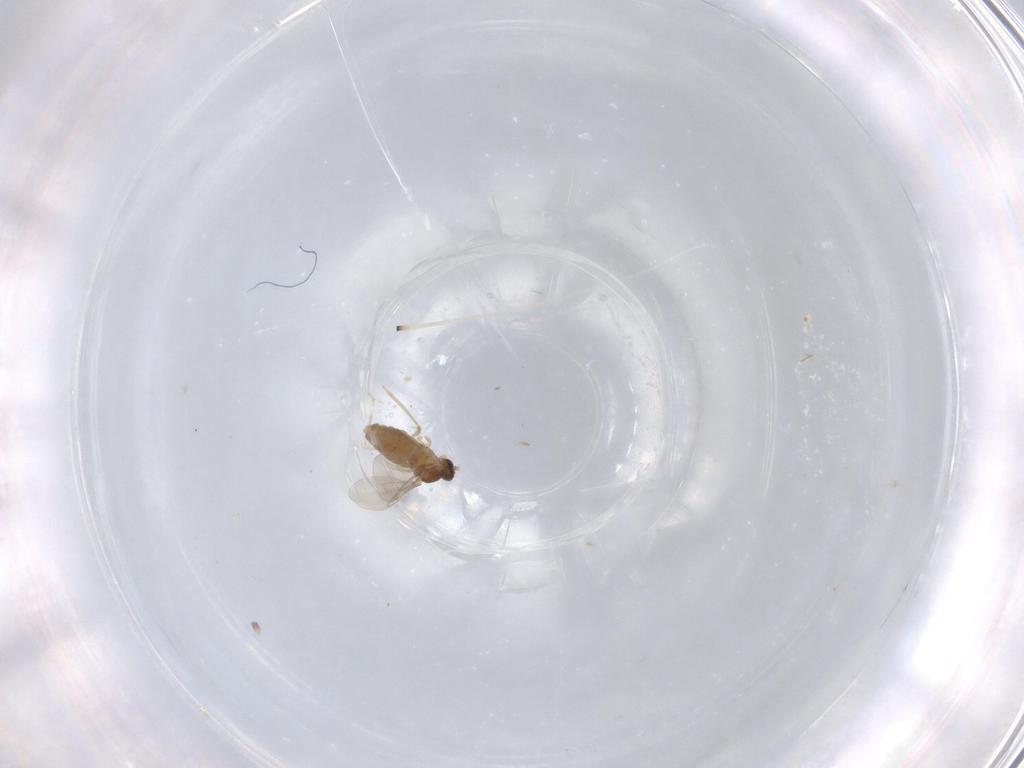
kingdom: Animalia
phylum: Arthropoda
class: Insecta
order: Diptera
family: Cecidomyiidae
